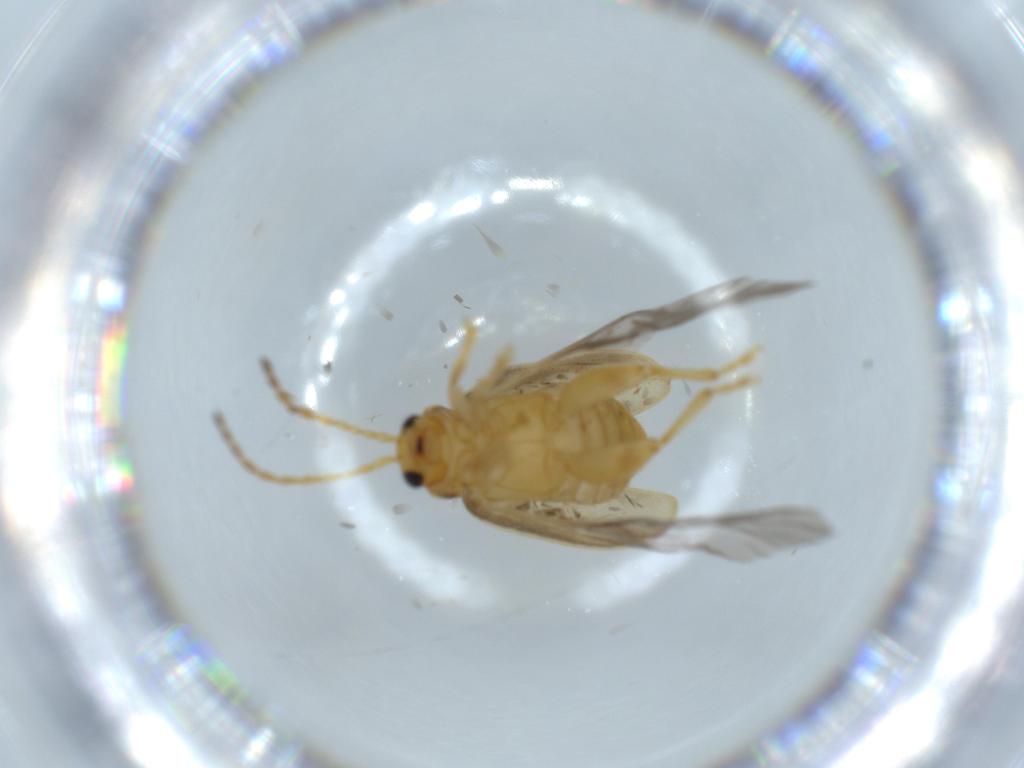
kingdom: Animalia
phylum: Arthropoda
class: Insecta
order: Coleoptera
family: Chrysomelidae
